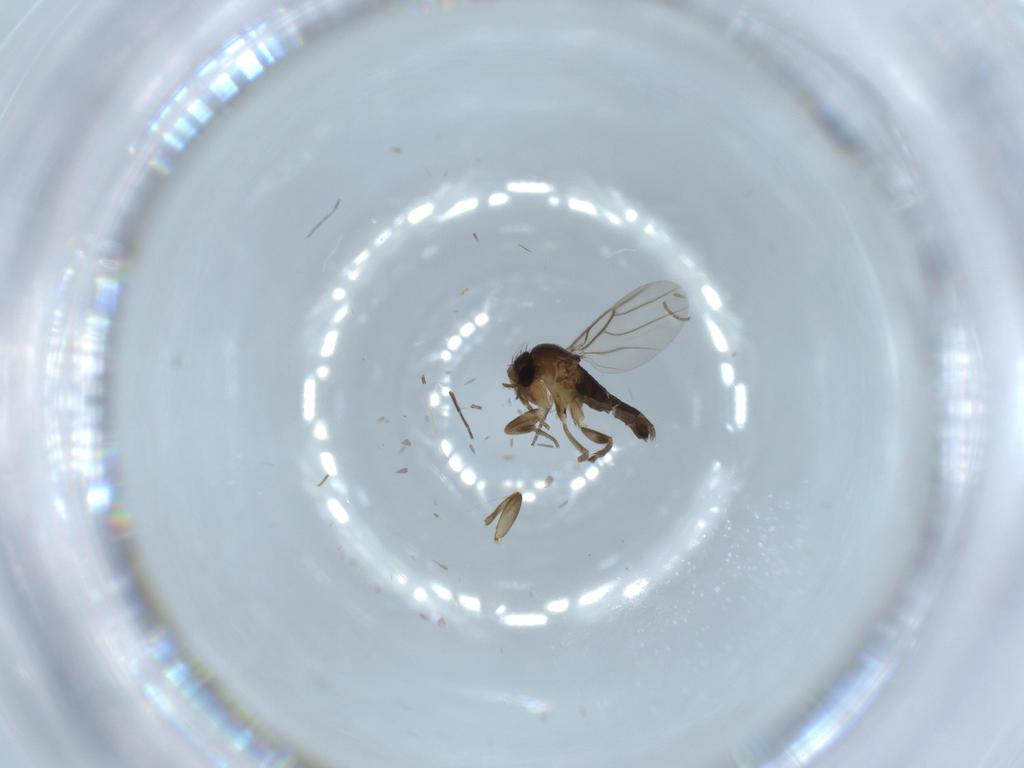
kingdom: Animalia
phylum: Arthropoda
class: Insecta
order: Diptera
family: Phoridae
